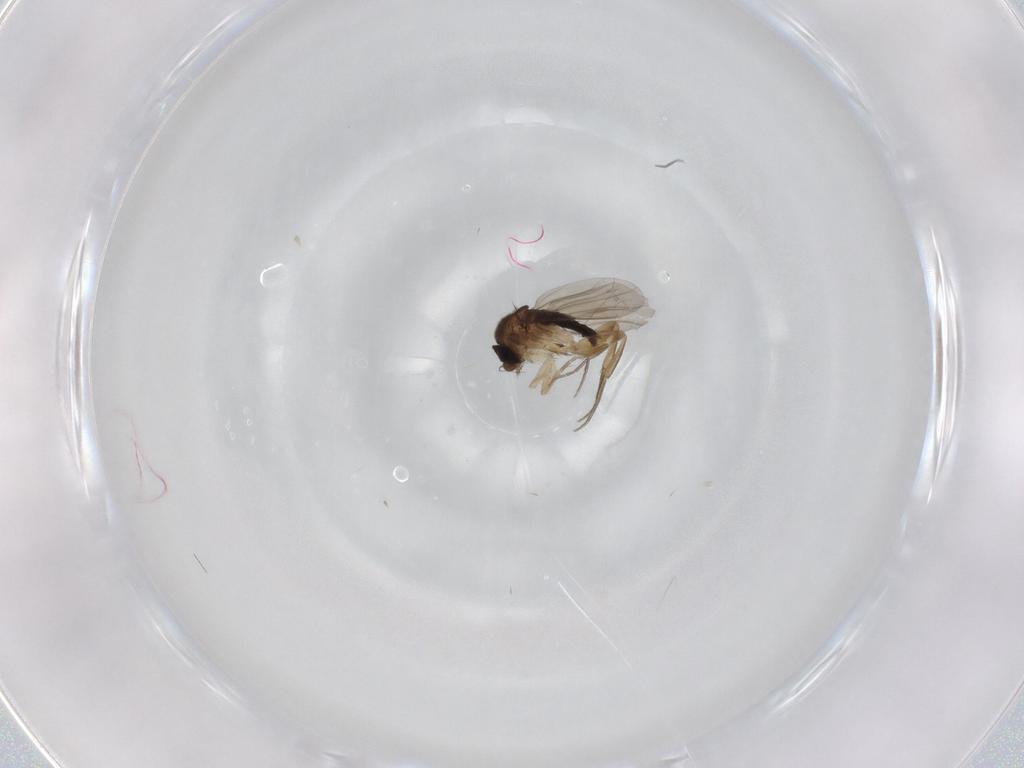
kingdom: Animalia
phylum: Arthropoda
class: Insecta
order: Diptera
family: Phoridae
